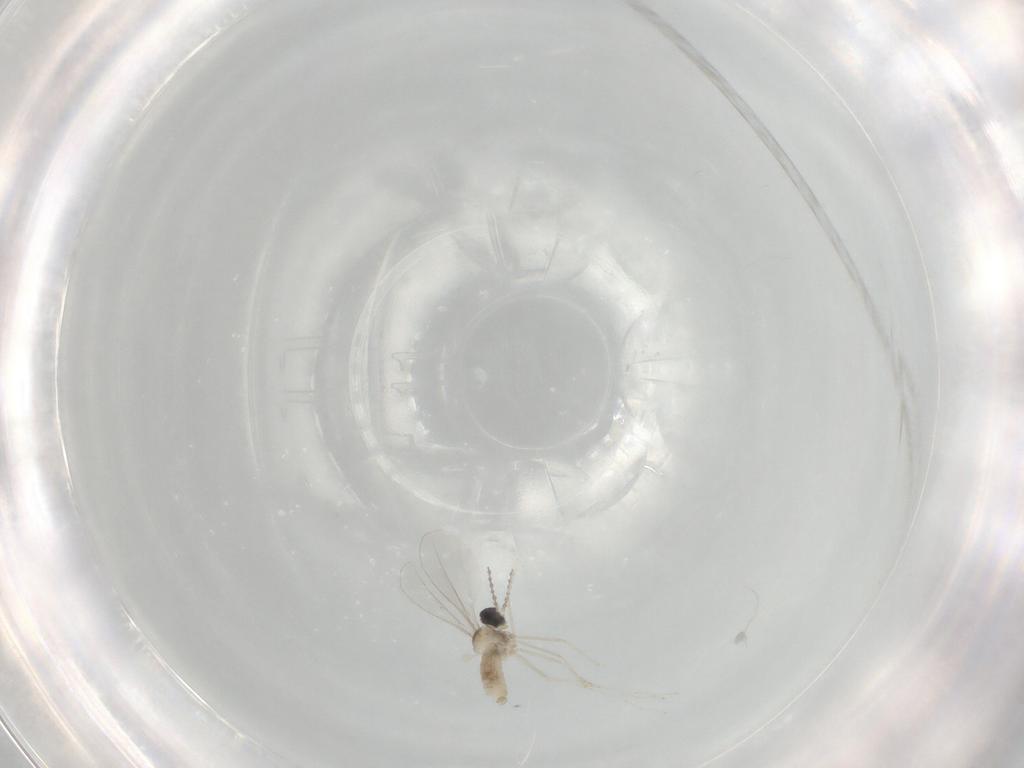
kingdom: Animalia
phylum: Arthropoda
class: Insecta
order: Diptera
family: Cecidomyiidae
